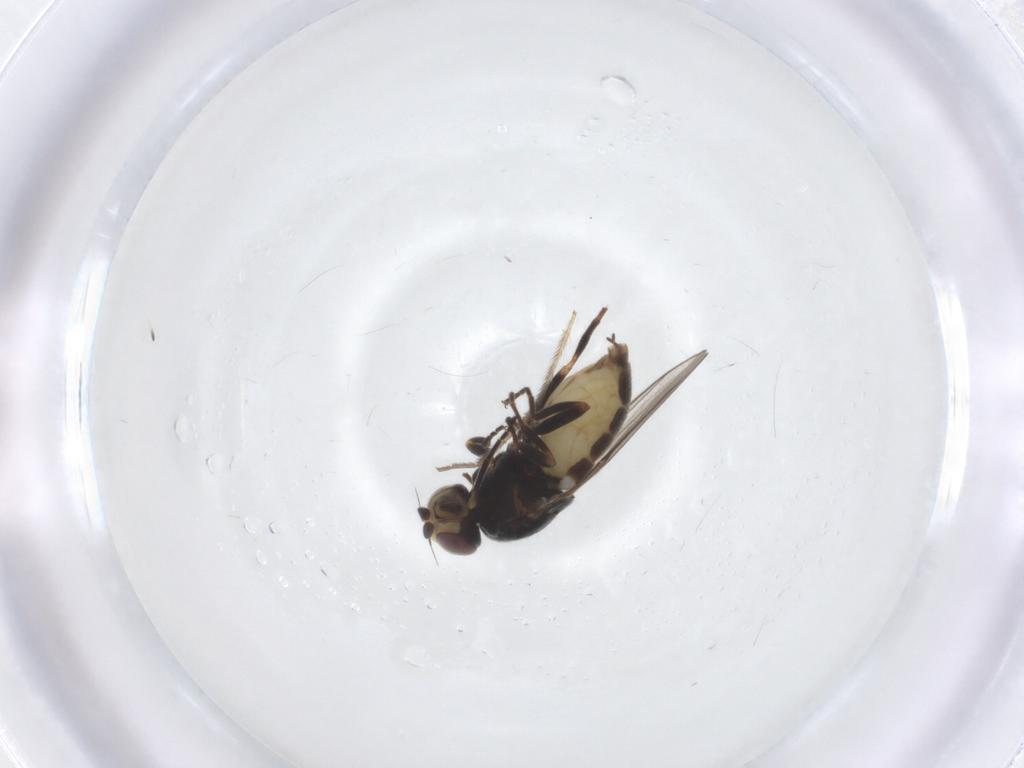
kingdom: Animalia
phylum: Arthropoda
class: Insecta
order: Diptera
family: Chloropidae
